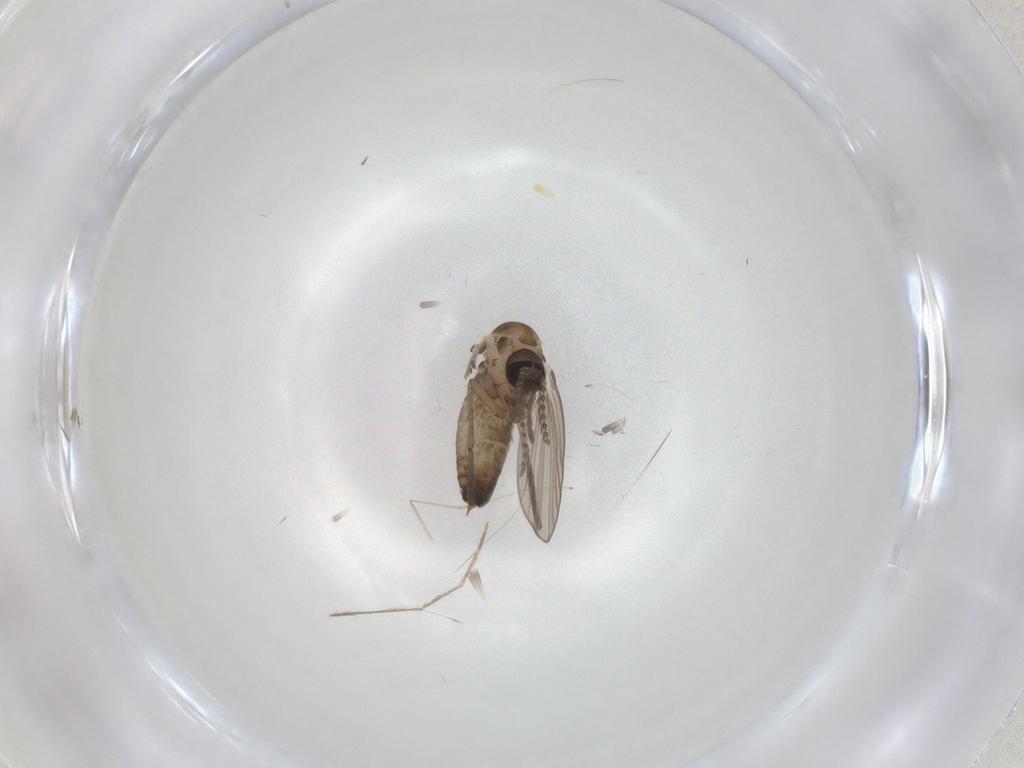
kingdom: Animalia
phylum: Arthropoda
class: Insecta
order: Diptera
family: Psychodidae
